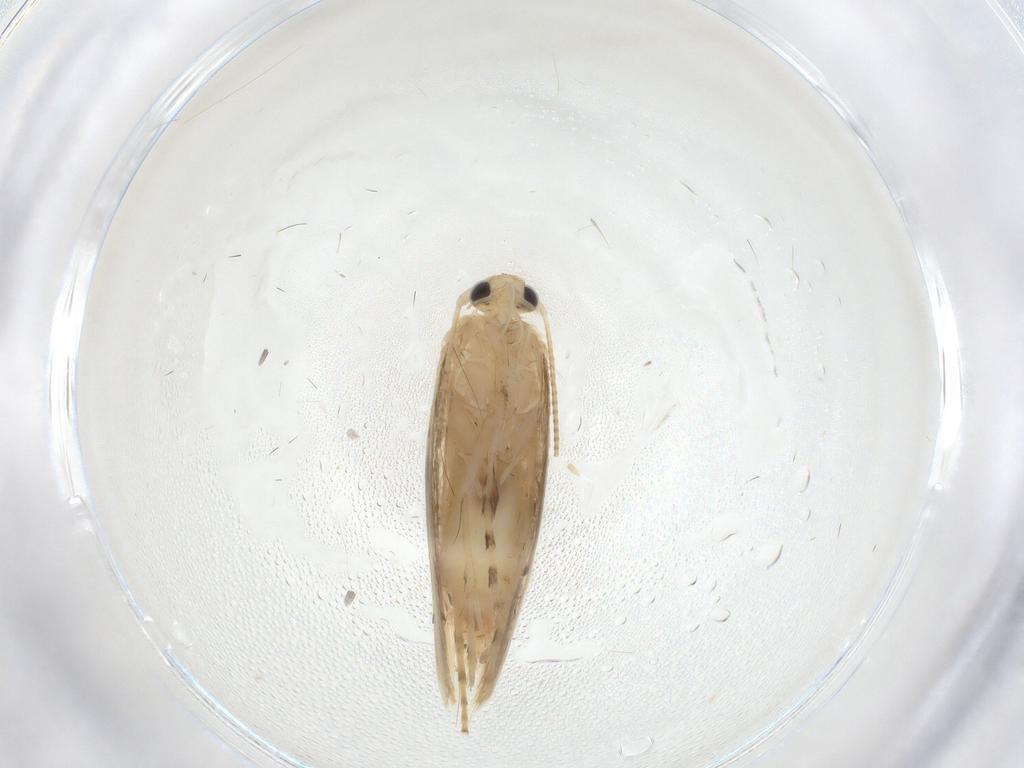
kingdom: Animalia
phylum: Arthropoda
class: Insecta
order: Lepidoptera
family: Gracillariidae
